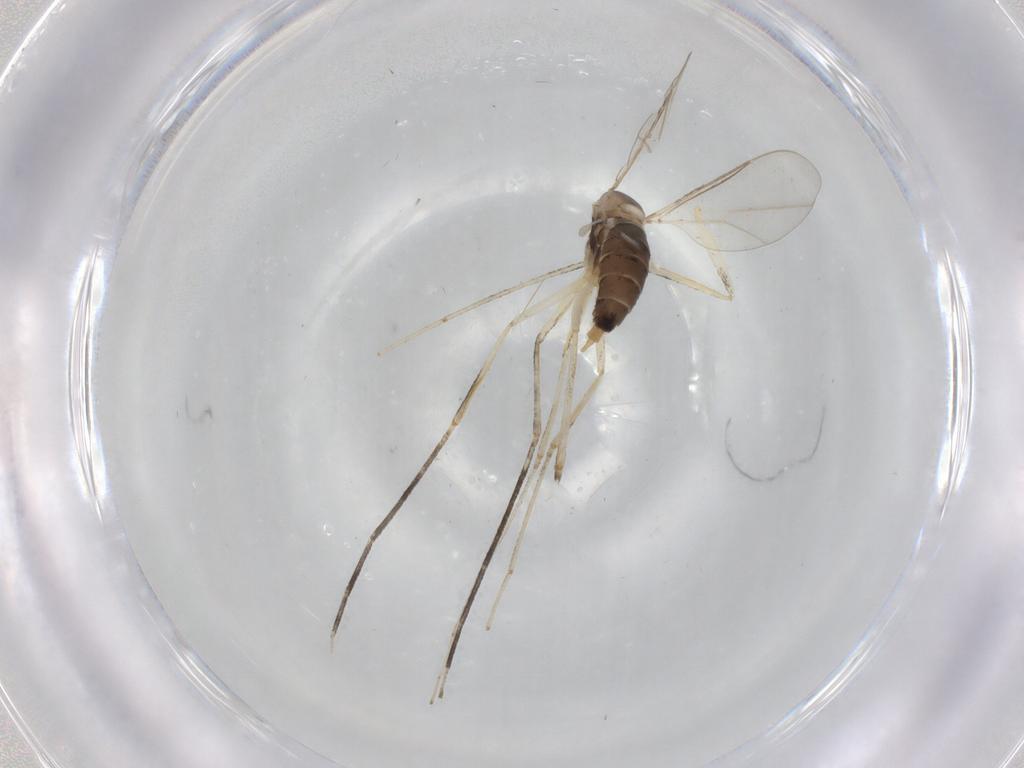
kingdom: Animalia
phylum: Arthropoda
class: Insecta
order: Diptera
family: Cecidomyiidae
